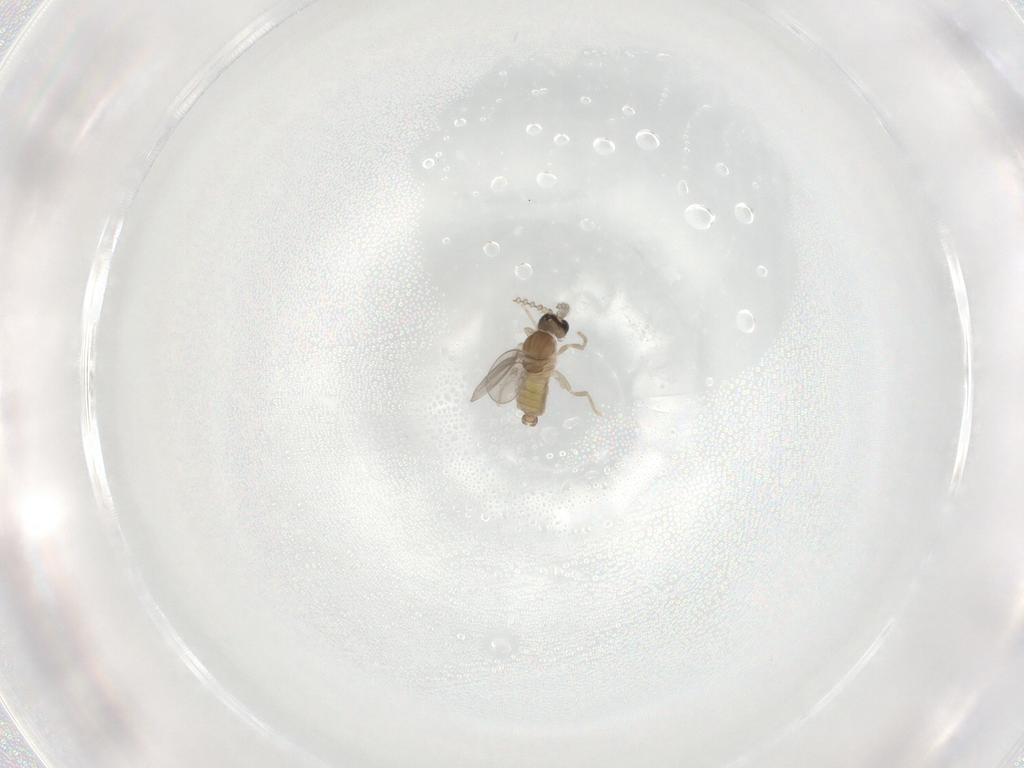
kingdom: Animalia
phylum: Arthropoda
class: Insecta
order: Diptera
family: Cecidomyiidae
